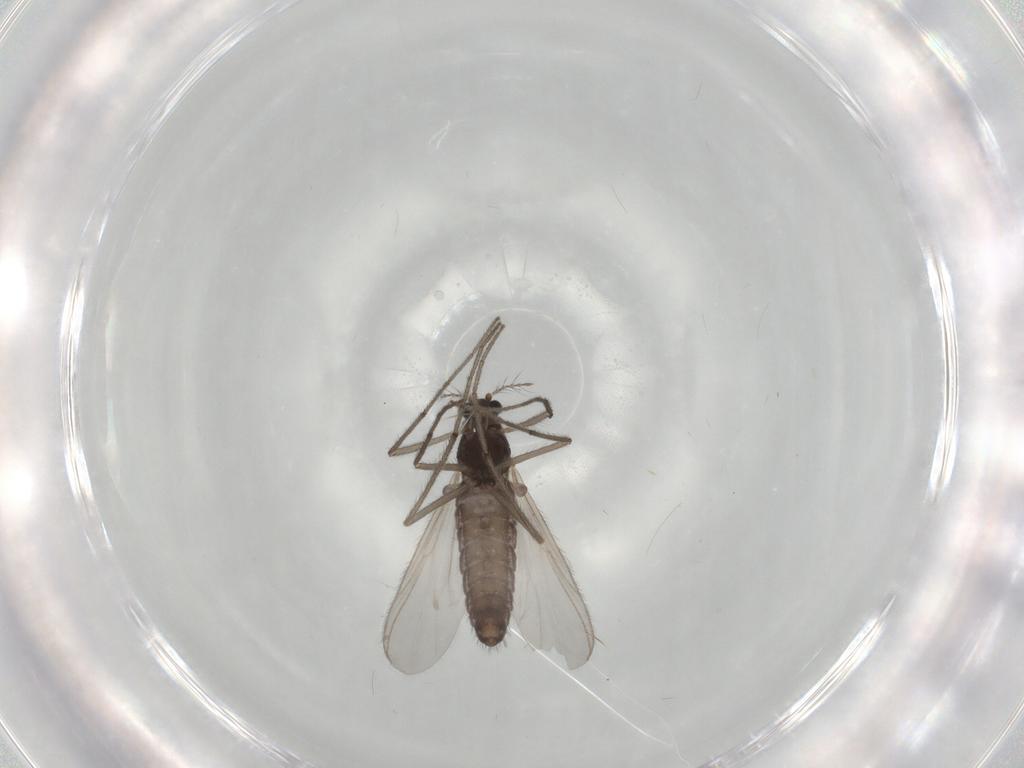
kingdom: Animalia
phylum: Arthropoda
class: Insecta
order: Diptera
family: Chironomidae
